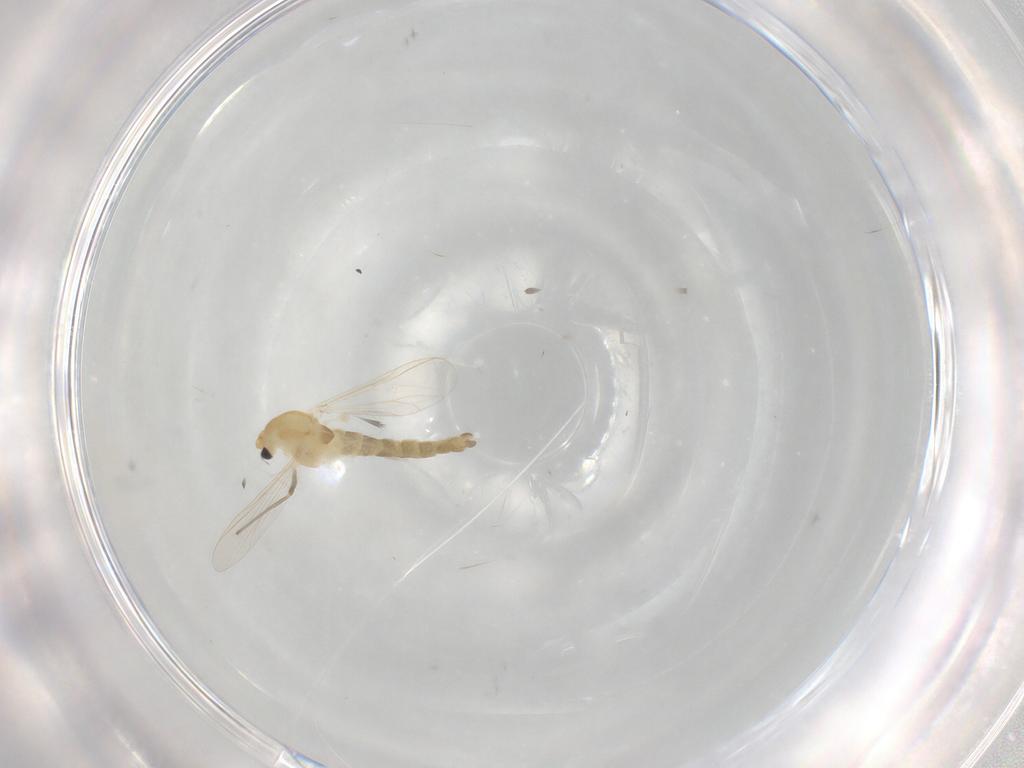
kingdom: Animalia
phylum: Arthropoda
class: Insecta
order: Diptera
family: Chironomidae
